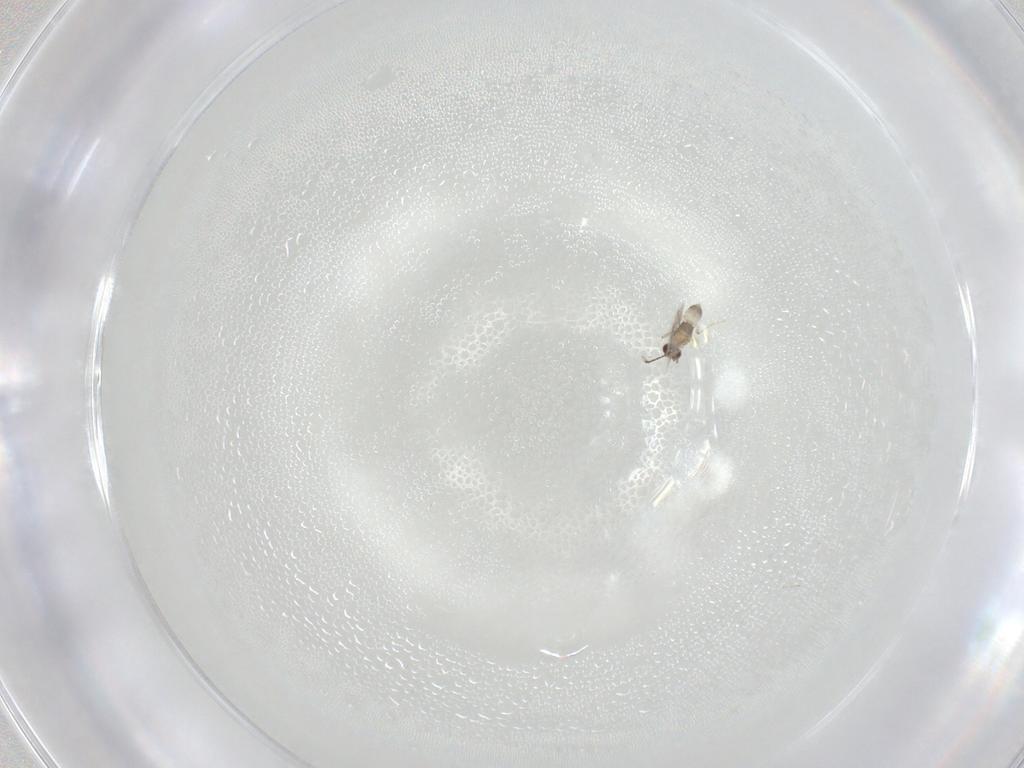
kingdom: Animalia
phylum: Arthropoda
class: Insecta
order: Hymenoptera
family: Mymaridae
